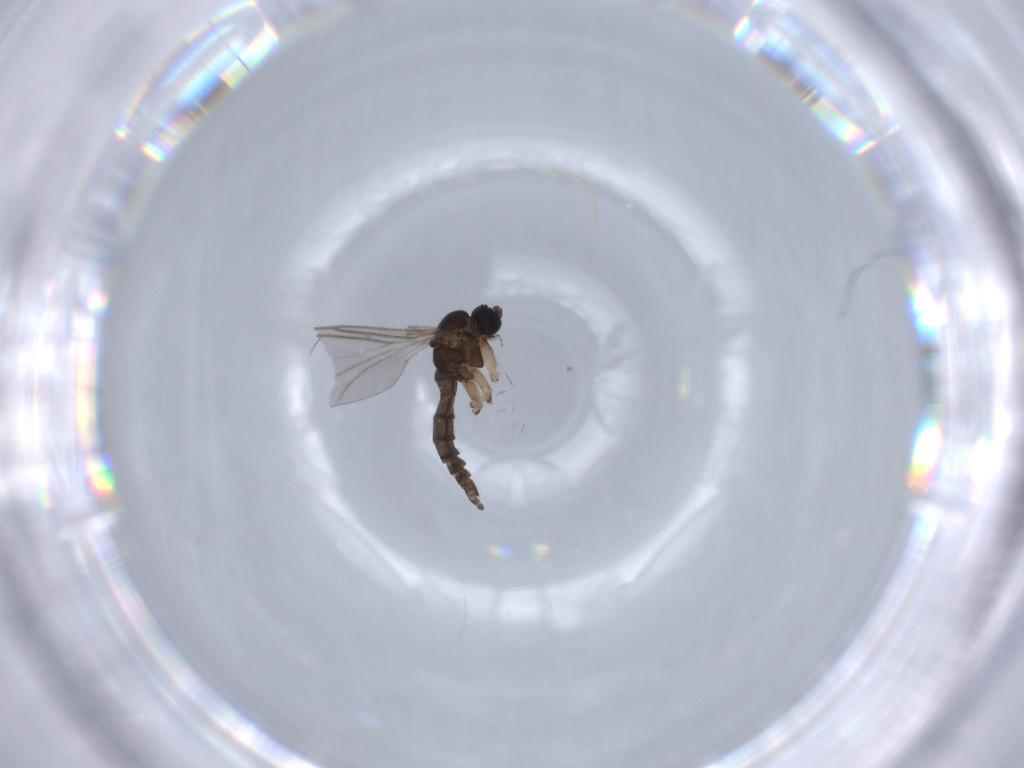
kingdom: Animalia
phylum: Arthropoda
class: Insecta
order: Diptera
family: Sciaridae
